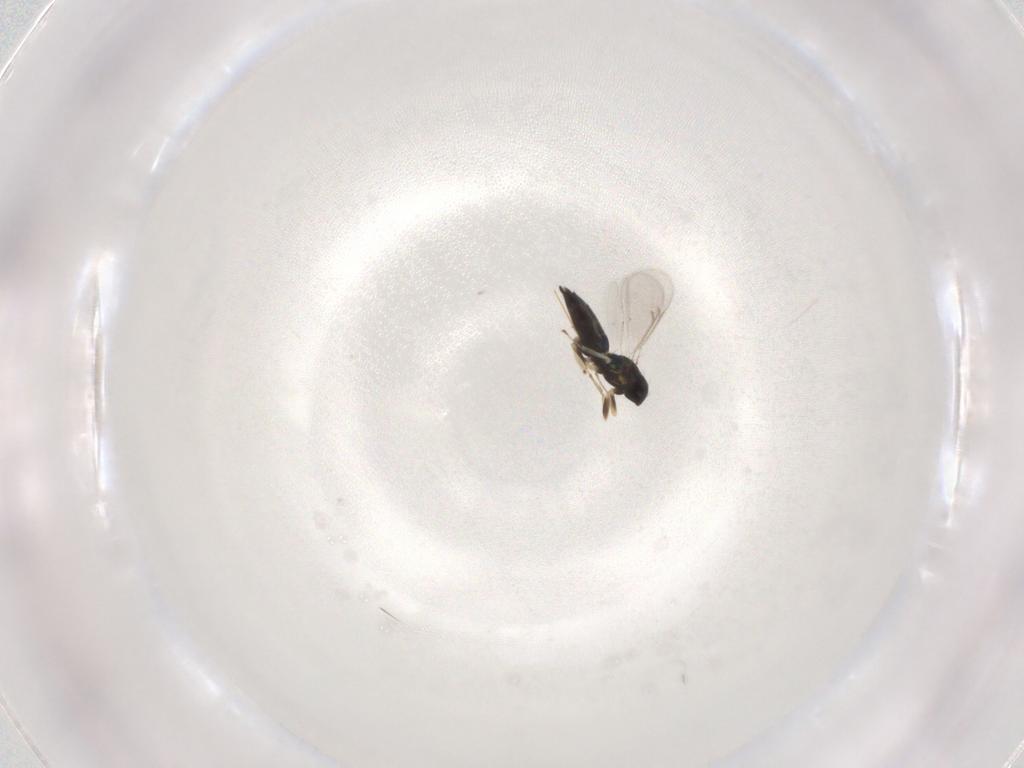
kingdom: Animalia
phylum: Arthropoda
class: Insecta
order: Hymenoptera
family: Eulophidae
